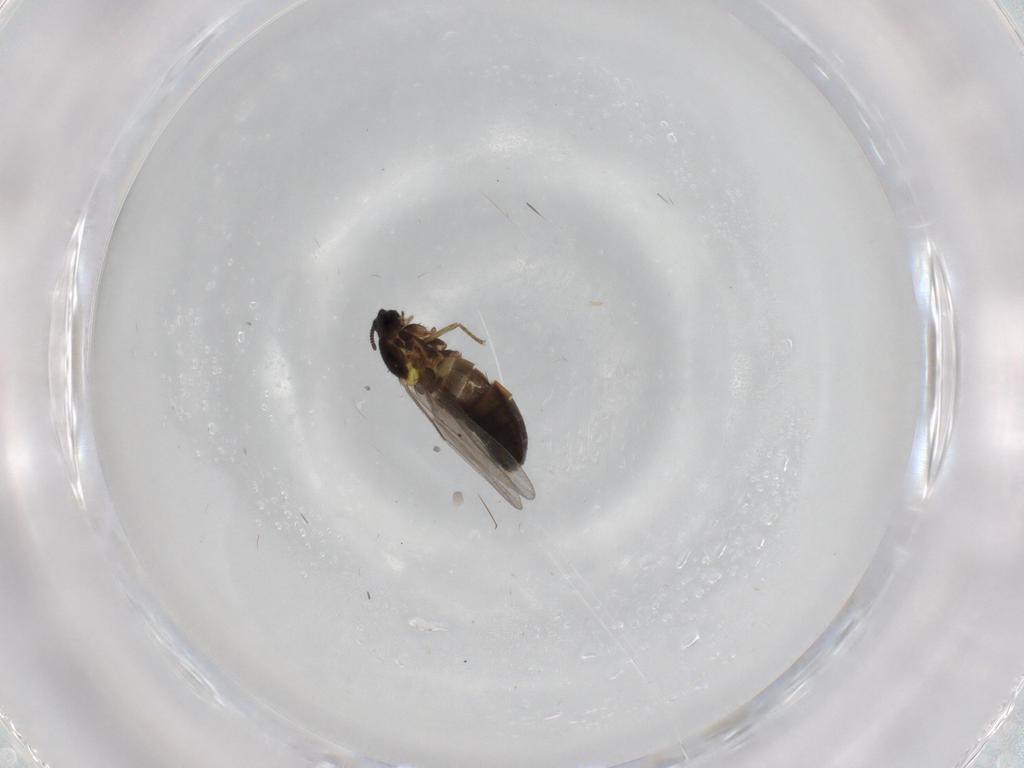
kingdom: Animalia
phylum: Arthropoda
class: Insecta
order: Diptera
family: Scatopsidae
